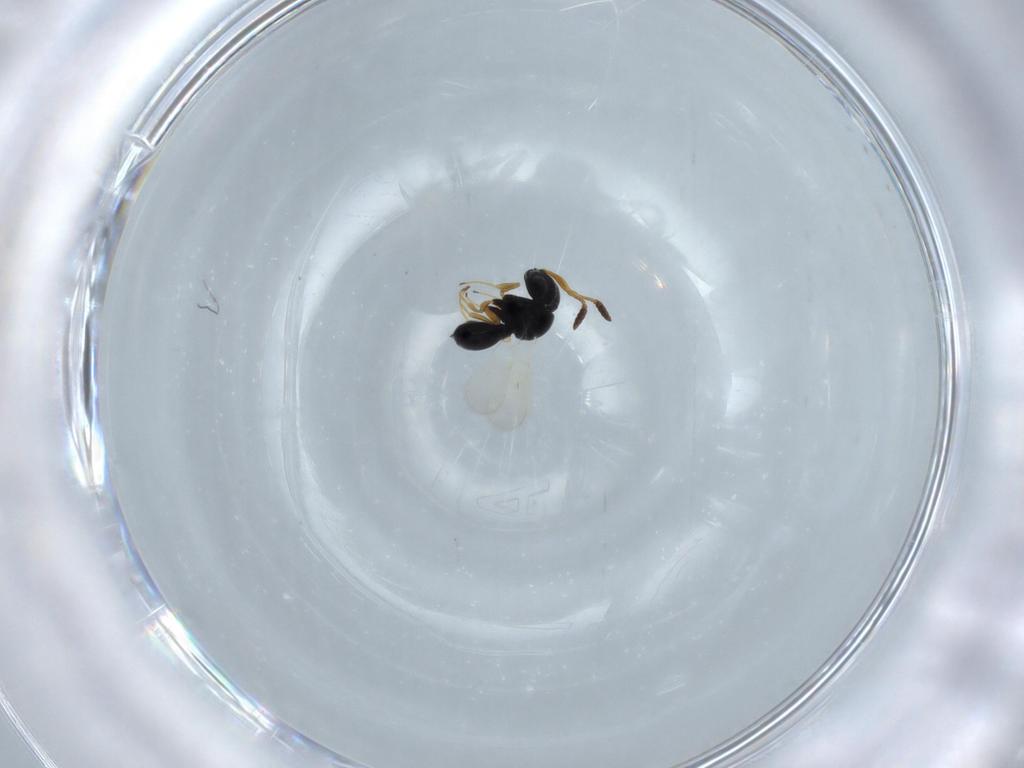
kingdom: Animalia
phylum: Arthropoda
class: Insecta
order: Hymenoptera
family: Scelionidae
